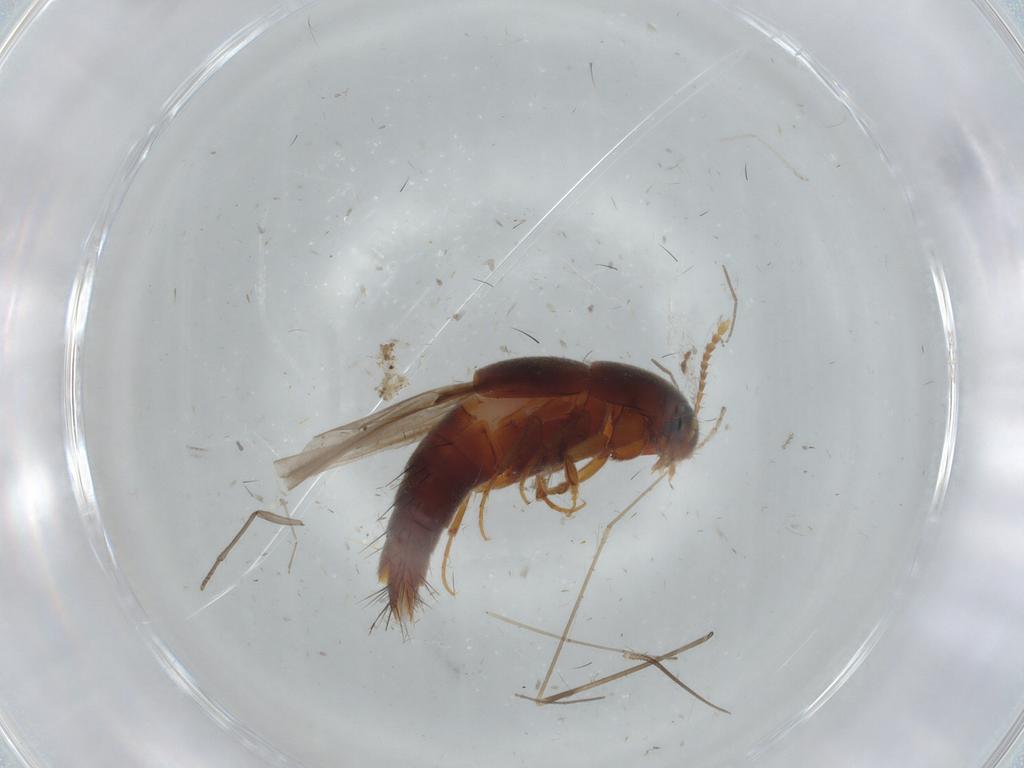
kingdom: Animalia
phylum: Arthropoda
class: Insecta
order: Coleoptera
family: Staphylinidae
